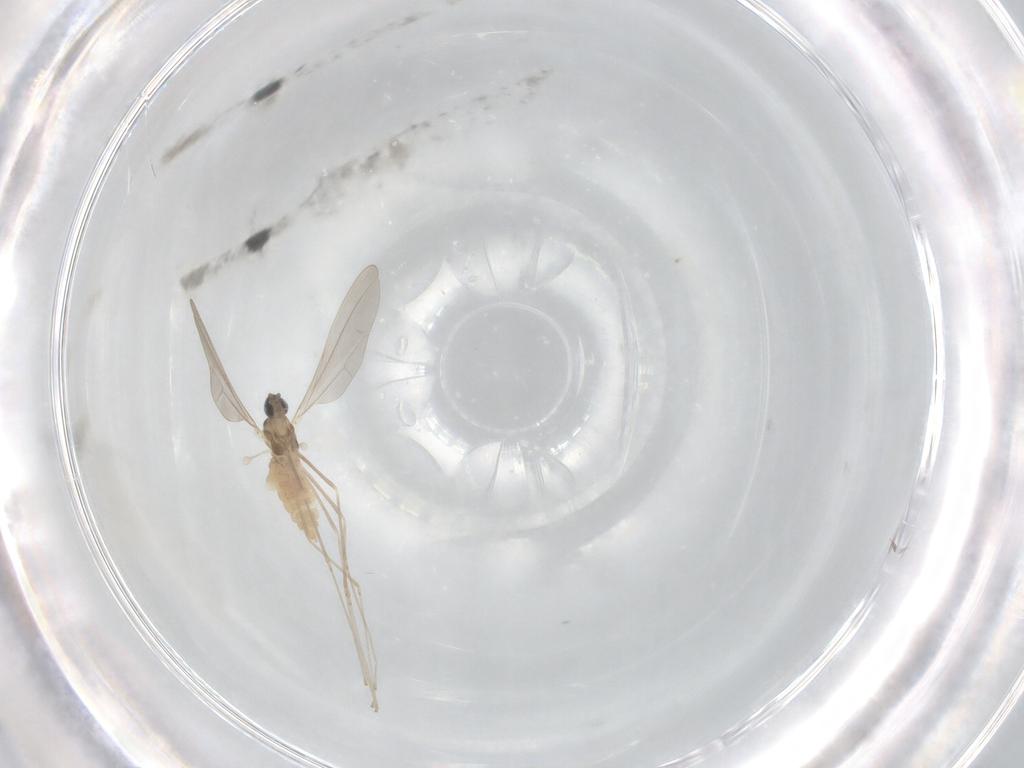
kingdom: Animalia
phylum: Arthropoda
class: Insecta
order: Diptera
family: Cecidomyiidae
